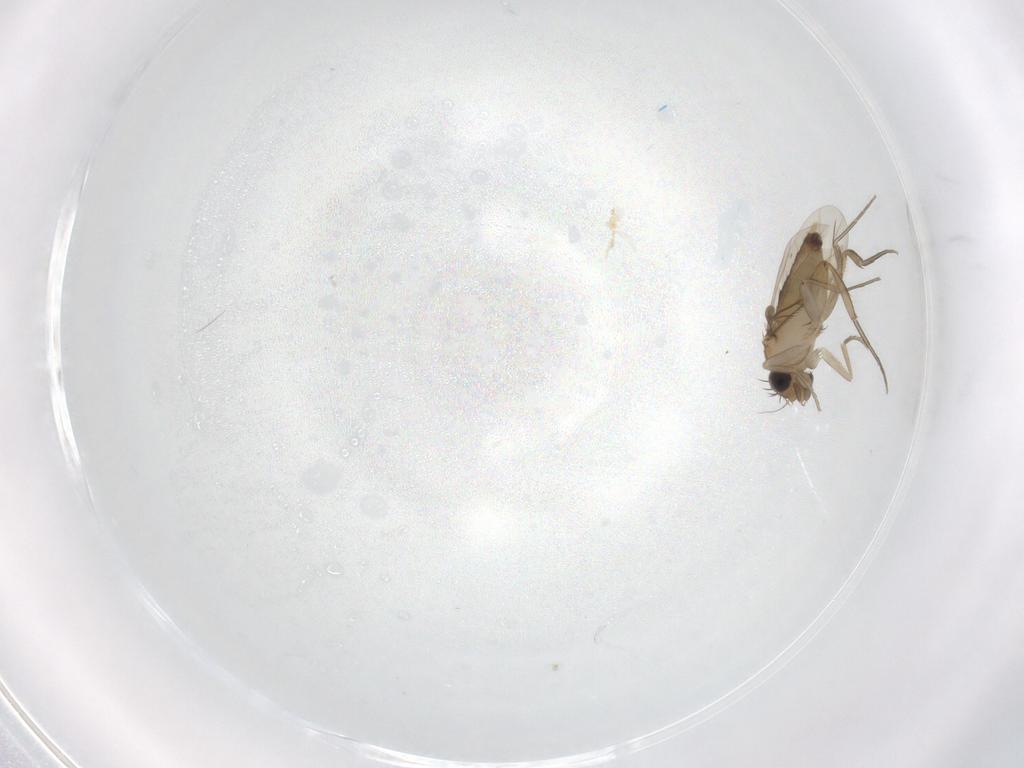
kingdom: Animalia
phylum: Arthropoda
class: Insecta
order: Diptera
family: Phoridae
